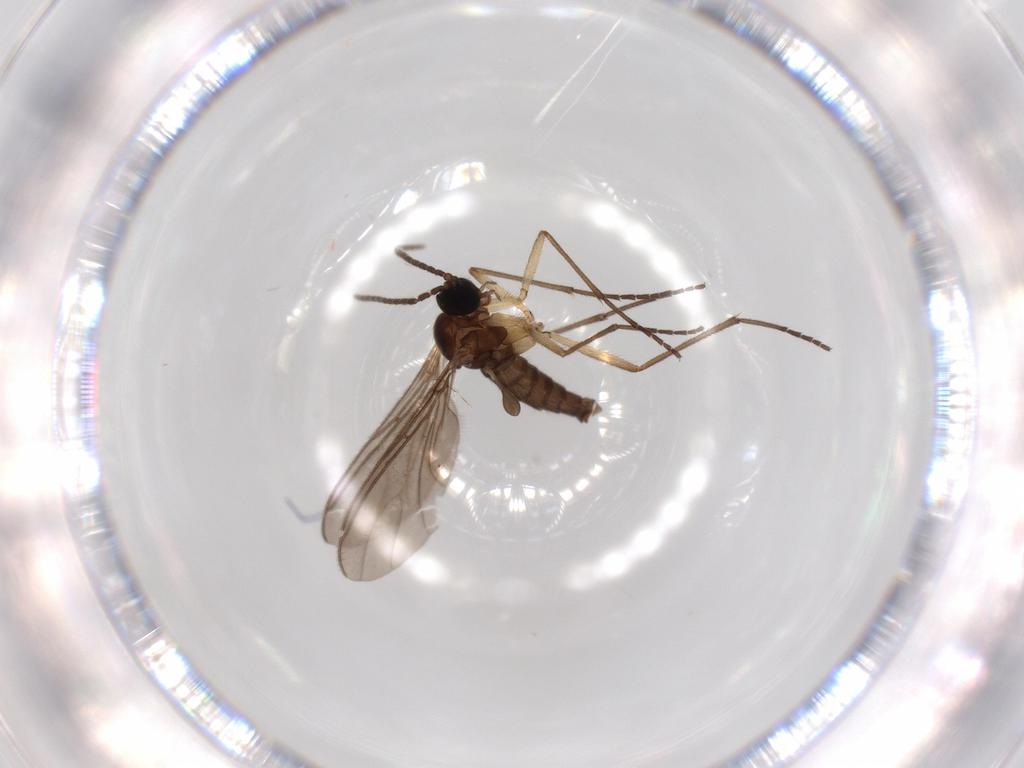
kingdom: Animalia
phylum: Arthropoda
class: Insecta
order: Diptera
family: Sciaridae
